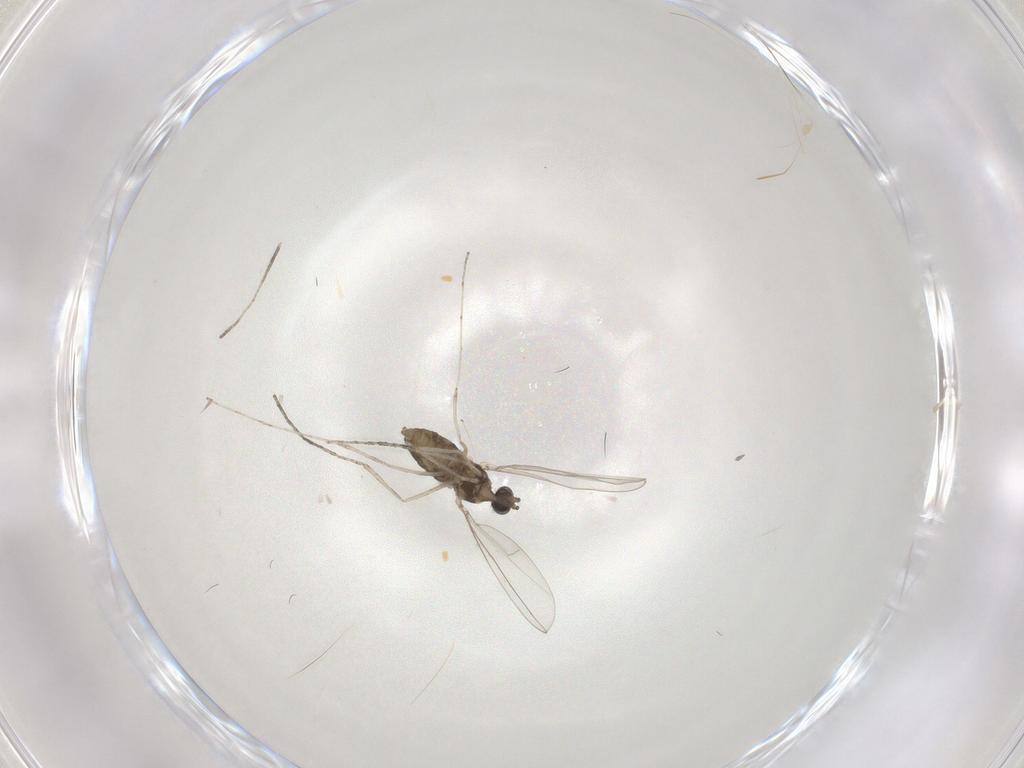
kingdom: Animalia
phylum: Arthropoda
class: Insecta
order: Diptera
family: Cecidomyiidae
